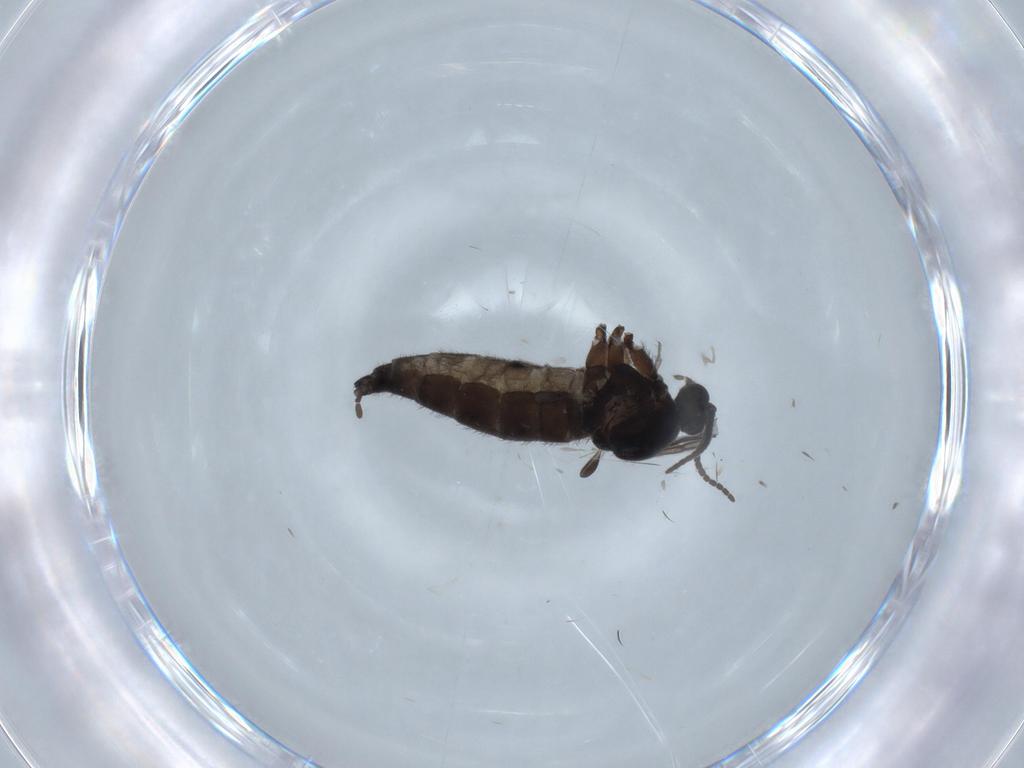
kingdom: Animalia
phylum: Arthropoda
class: Insecta
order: Diptera
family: Sciaridae
